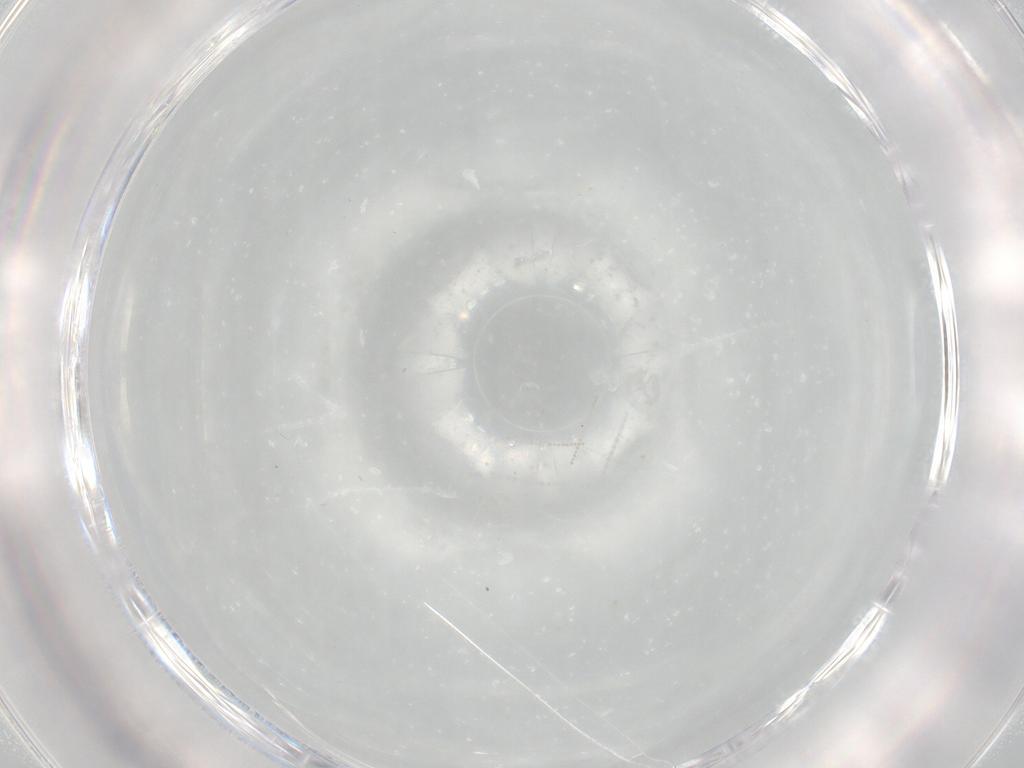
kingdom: Animalia
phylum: Arthropoda
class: Insecta
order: Diptera
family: Cecidomyiidae
